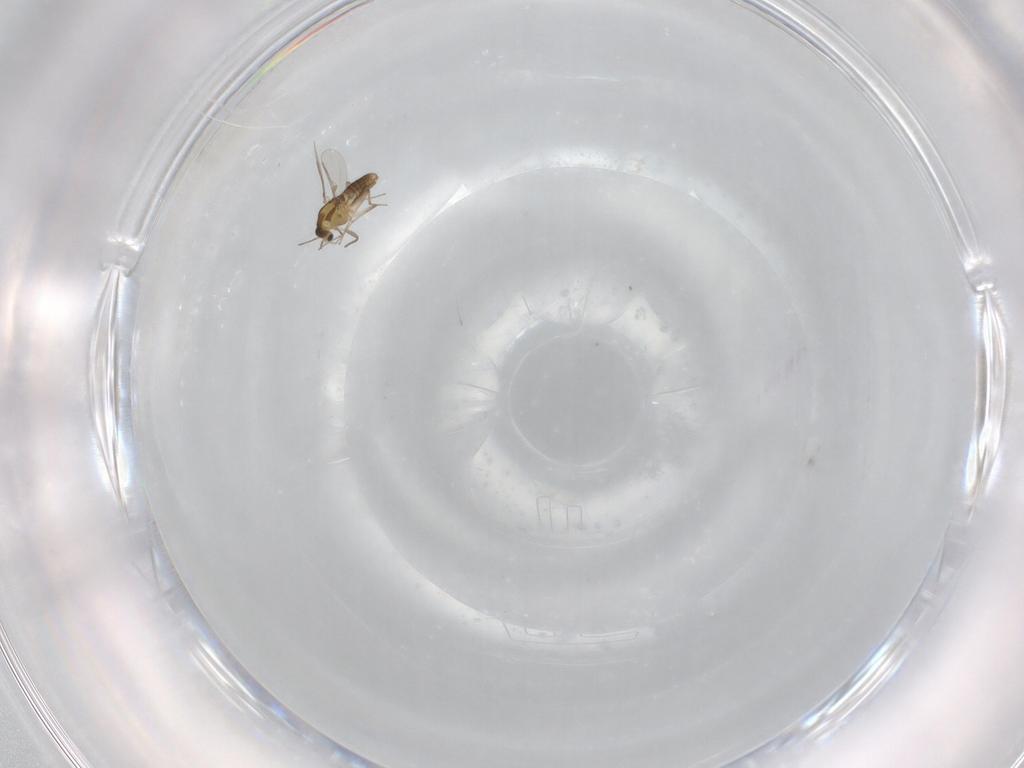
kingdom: Animalia
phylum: Arthropoda
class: Insecta
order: Diptera
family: Chironomidae
